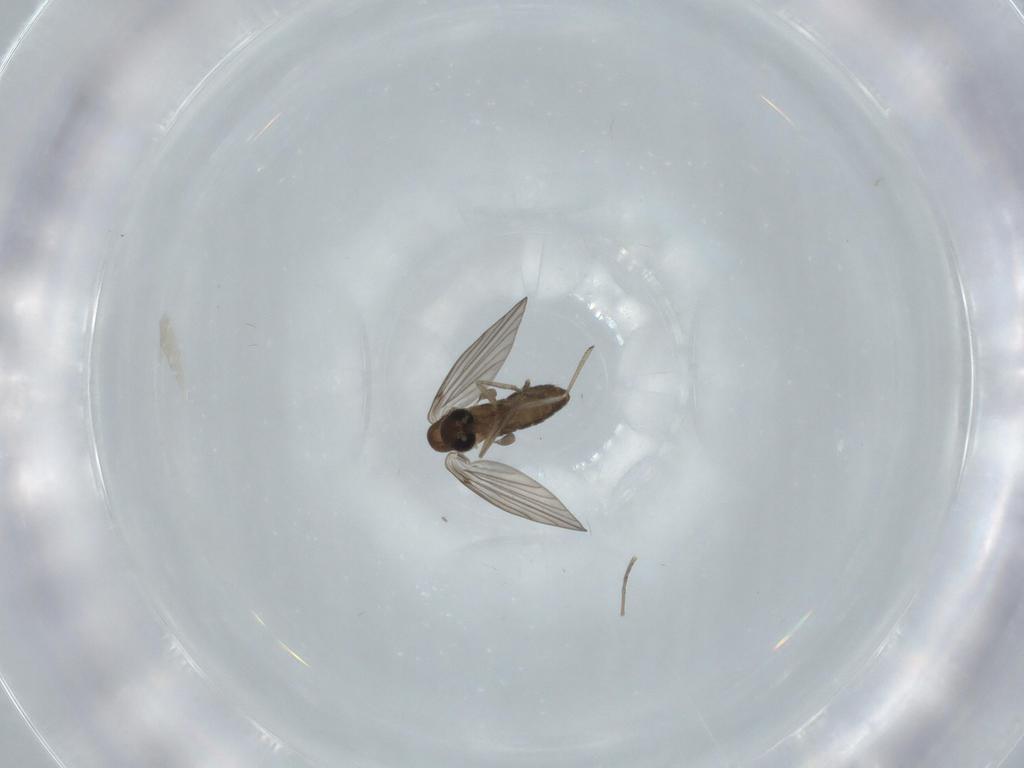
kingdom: Animalia
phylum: Arthropoda
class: Insecta
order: Diptera
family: Psychodidae
